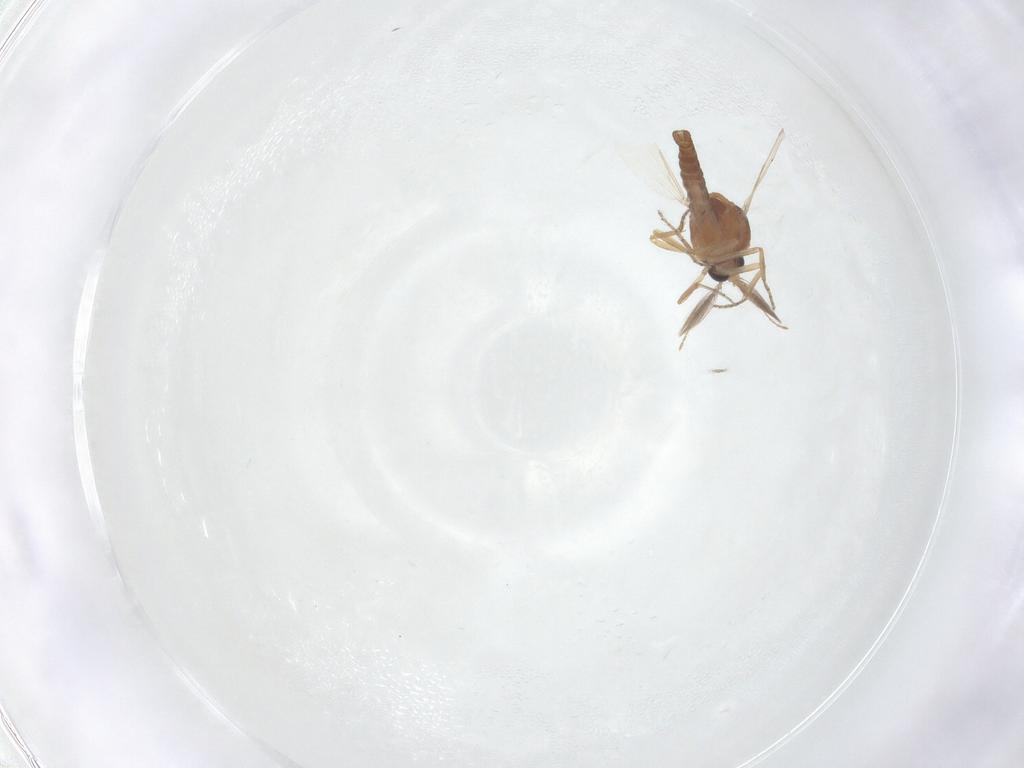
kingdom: Animalia
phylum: Arthropoda
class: Insecta
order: Diptera
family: Ceratopogonidae
